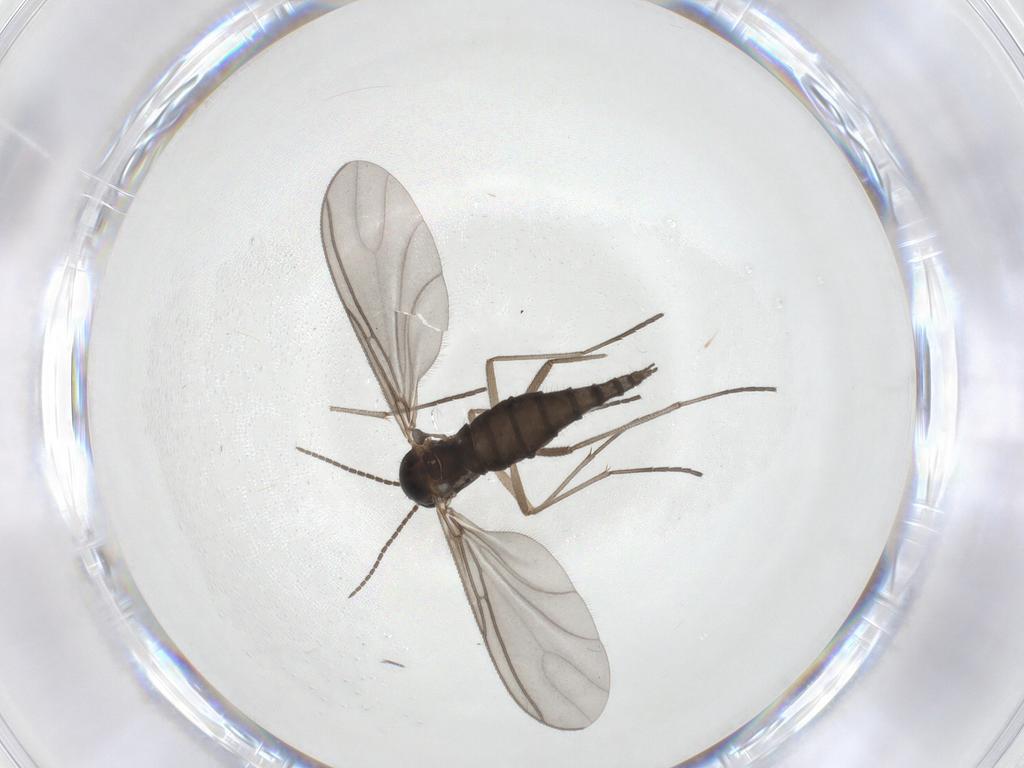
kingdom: Animalia
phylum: Arthropoda
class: Insecta
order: Diptera
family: Sciaridae
